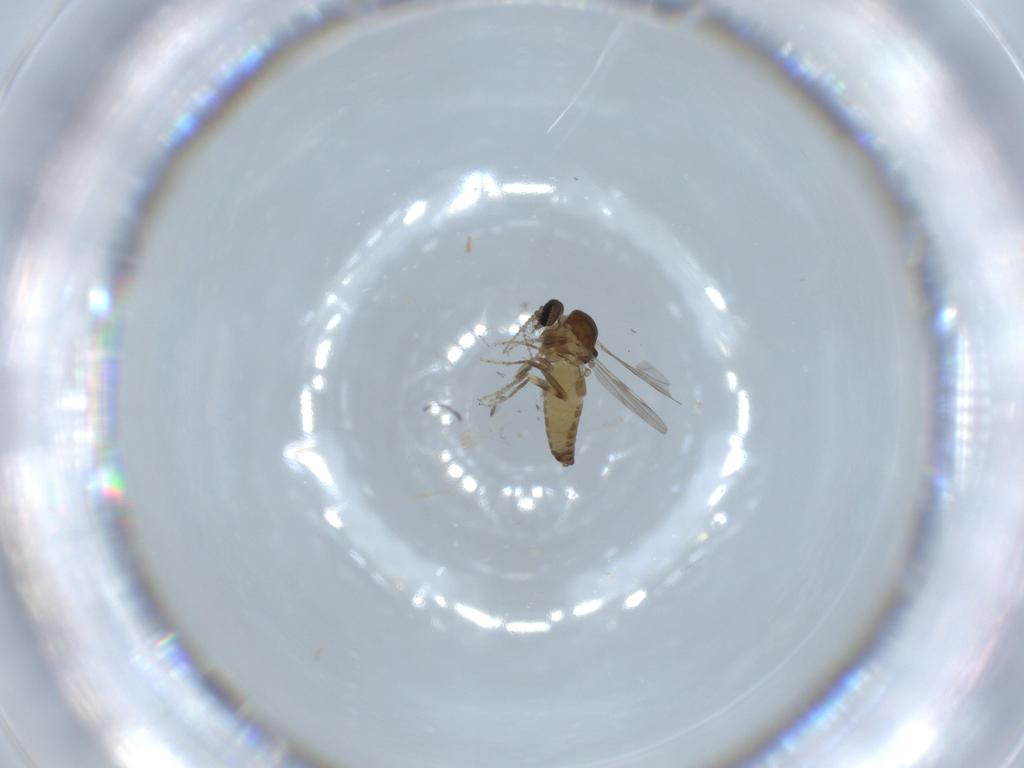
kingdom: Animalia
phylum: Arthropoda
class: Insecta
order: Diptera
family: Ceratopogonidae
